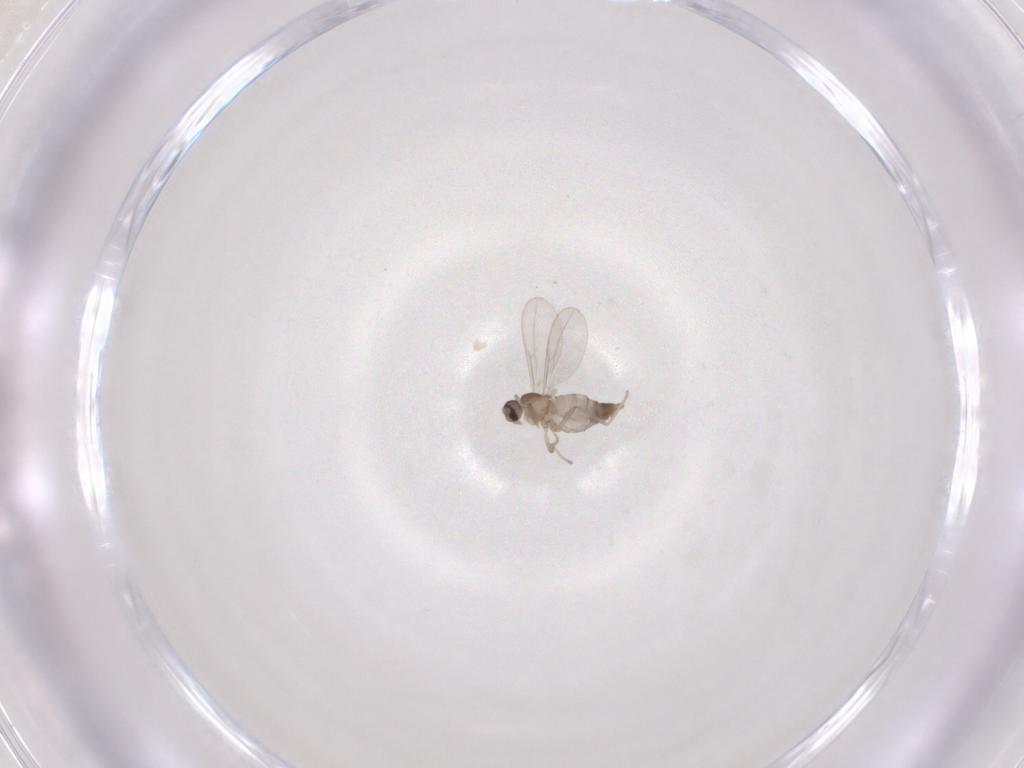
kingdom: Animalia
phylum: Arthropoda
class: Insecta
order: Diptera
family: Cecidomyiidae
